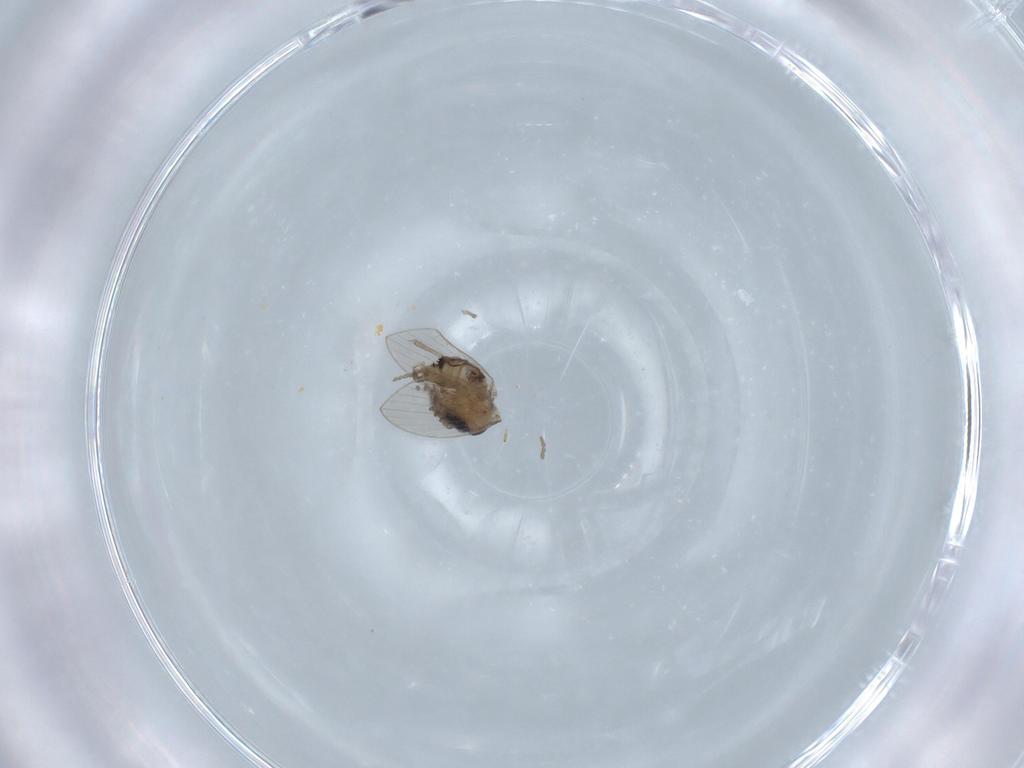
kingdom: Animalia
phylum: Arthropoda
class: Insecta
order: Diptera
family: Psychodidae
